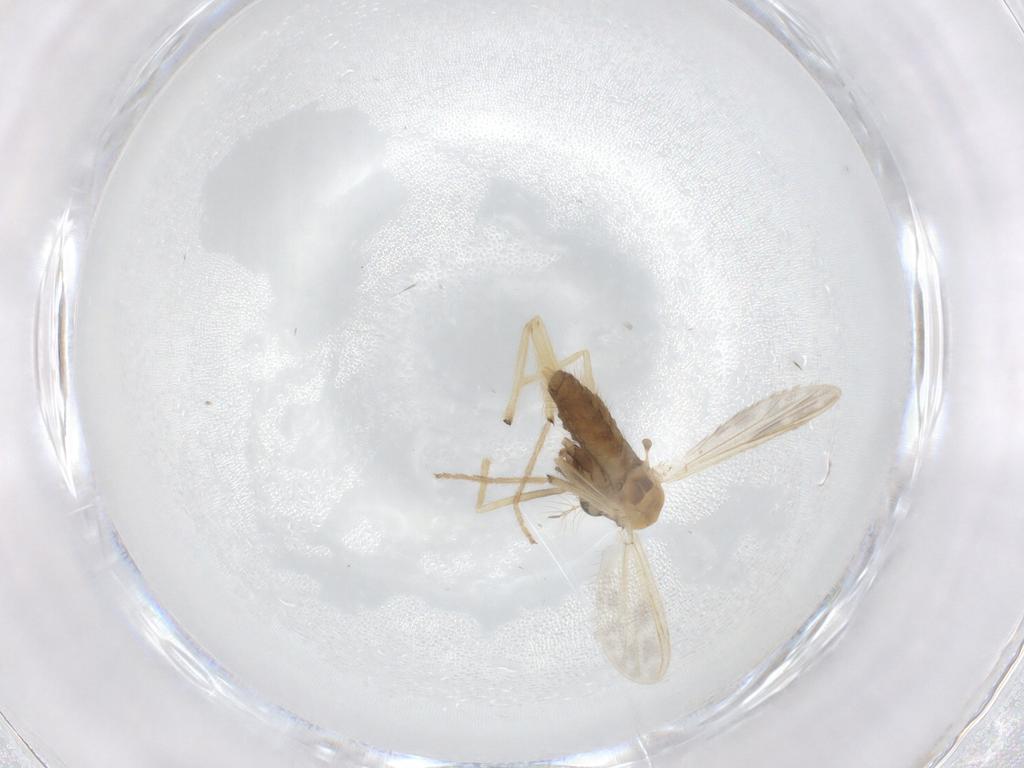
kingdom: Animalia
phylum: Arthropoda
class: Insecta
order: Diptera
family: Chironomidae
